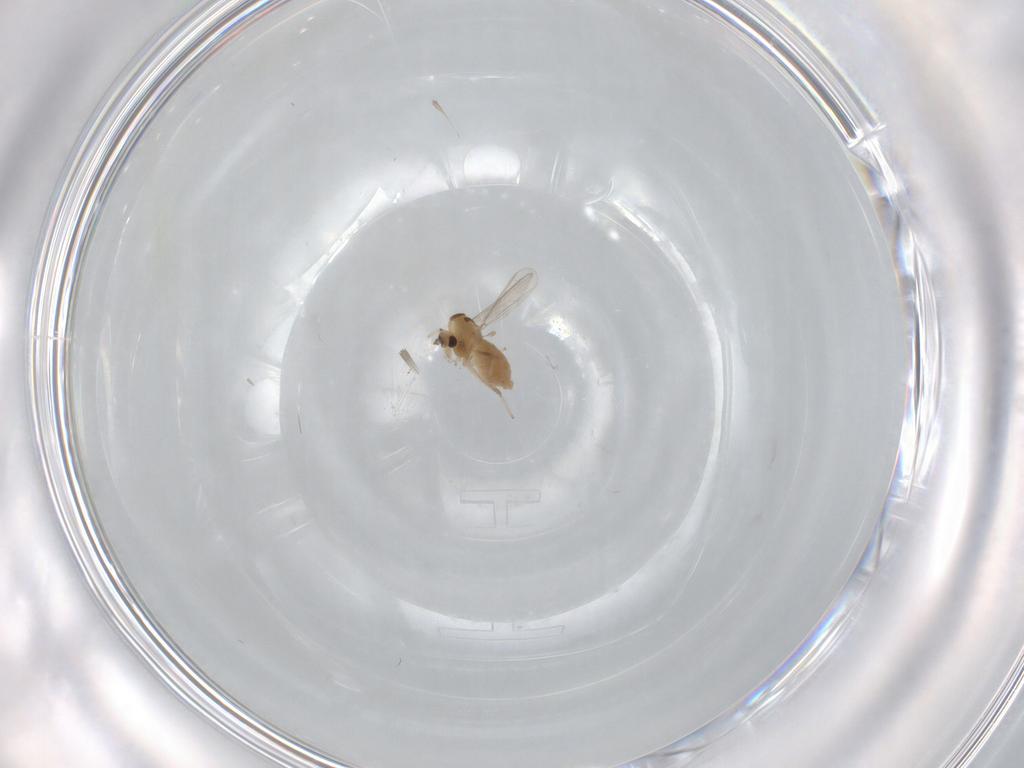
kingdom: Animalia
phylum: Arthropoda
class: Insecta
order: Diptera
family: Chironomidae
